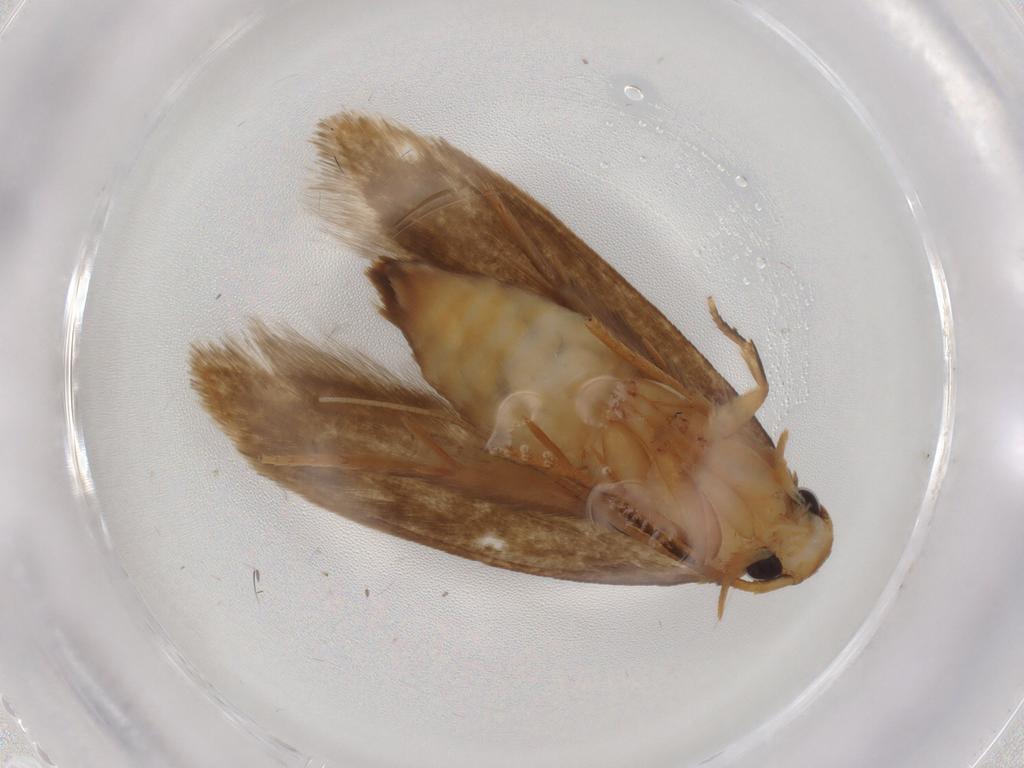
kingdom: Animalia
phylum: Arthropoda
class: Insecta
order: Lepidoptera
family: Tineidae
